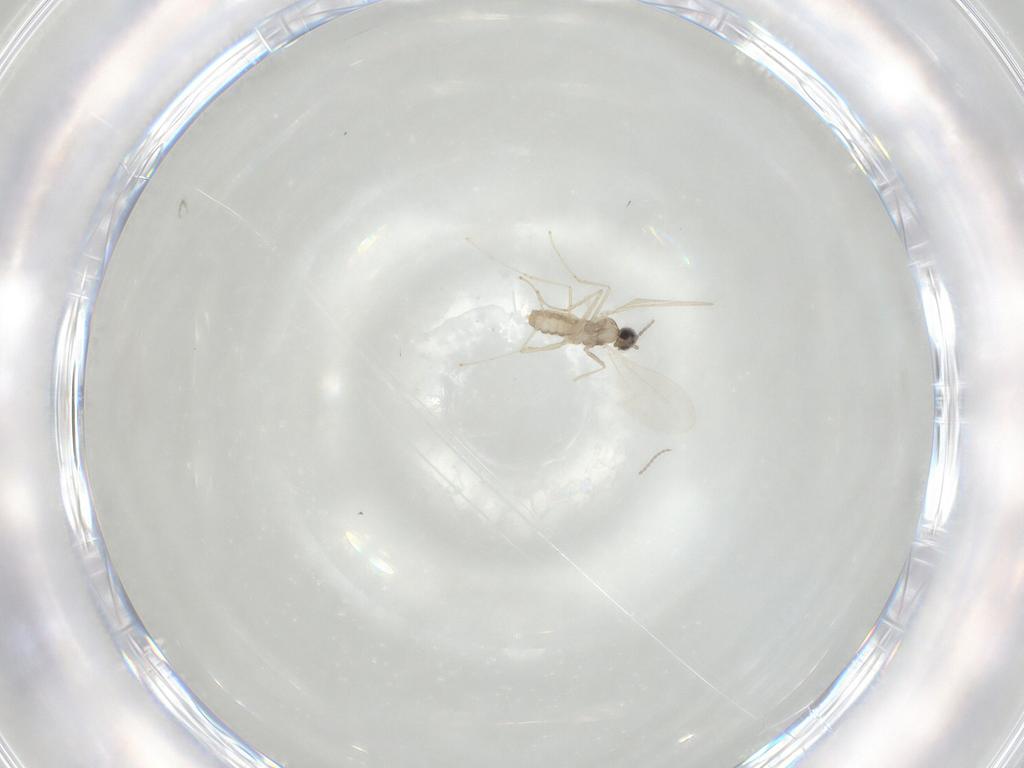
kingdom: Animalia
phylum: Arthropoda
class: Insecta
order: Diptera
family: Cecidomyiidae
